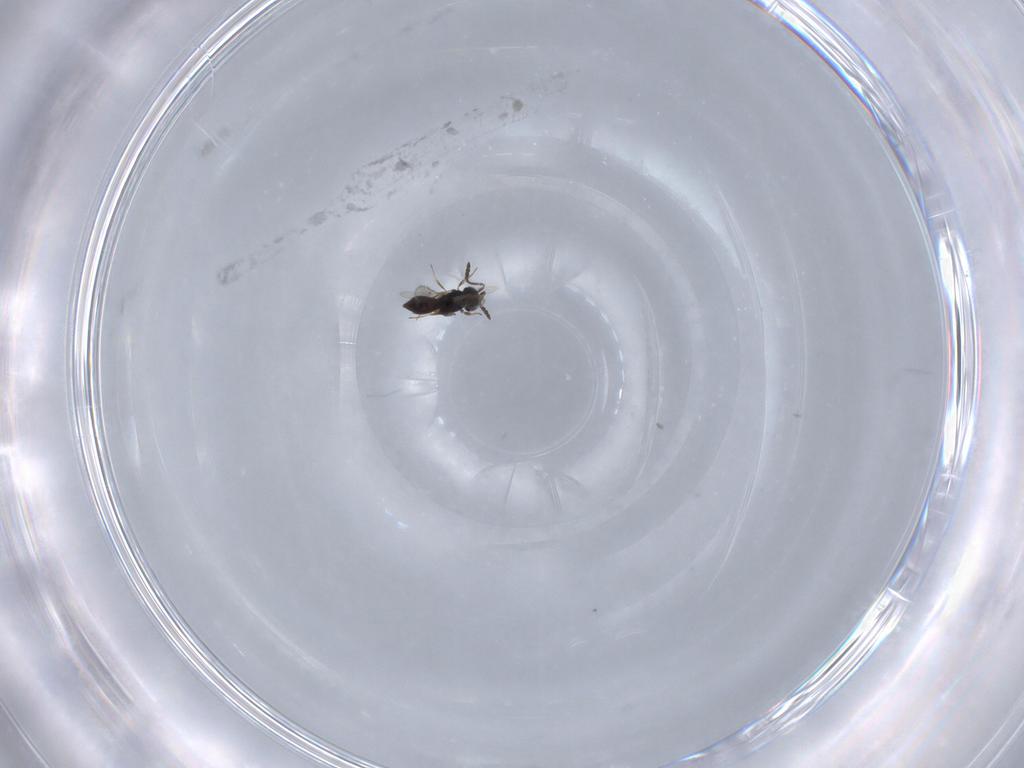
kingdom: Animalia
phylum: Arthropoda
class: Insecta
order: Hymenoptera
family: Scelionidae
